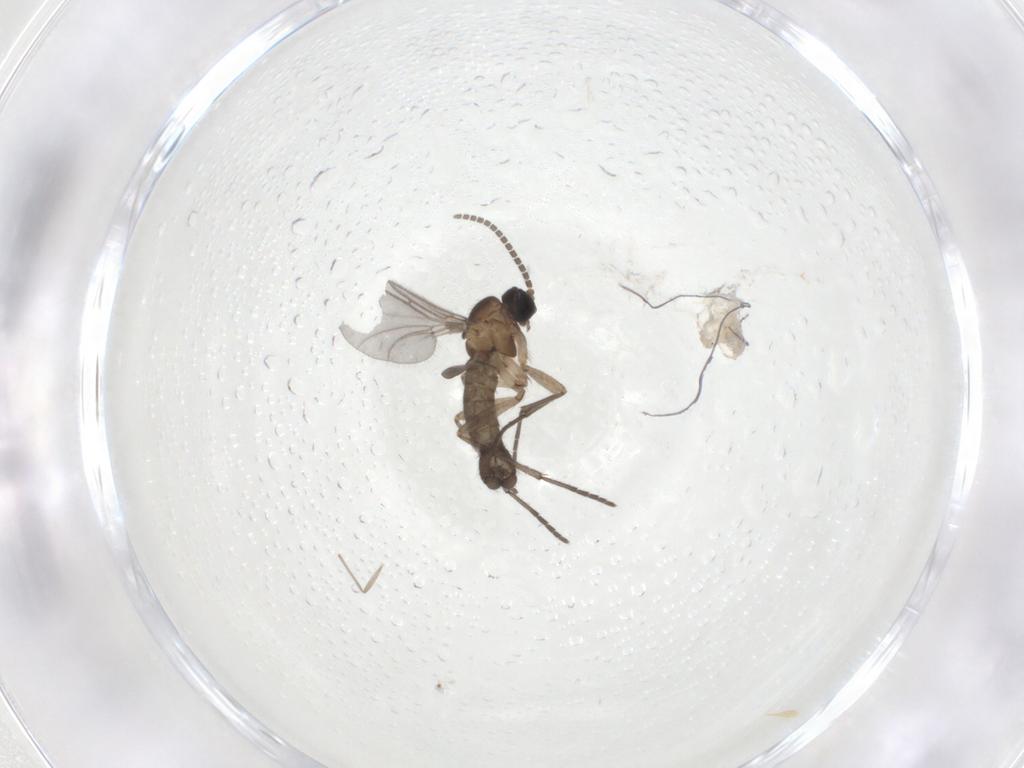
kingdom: Animalia
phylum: Arthropoda
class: Insecta
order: Diptera
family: Sciaridae
